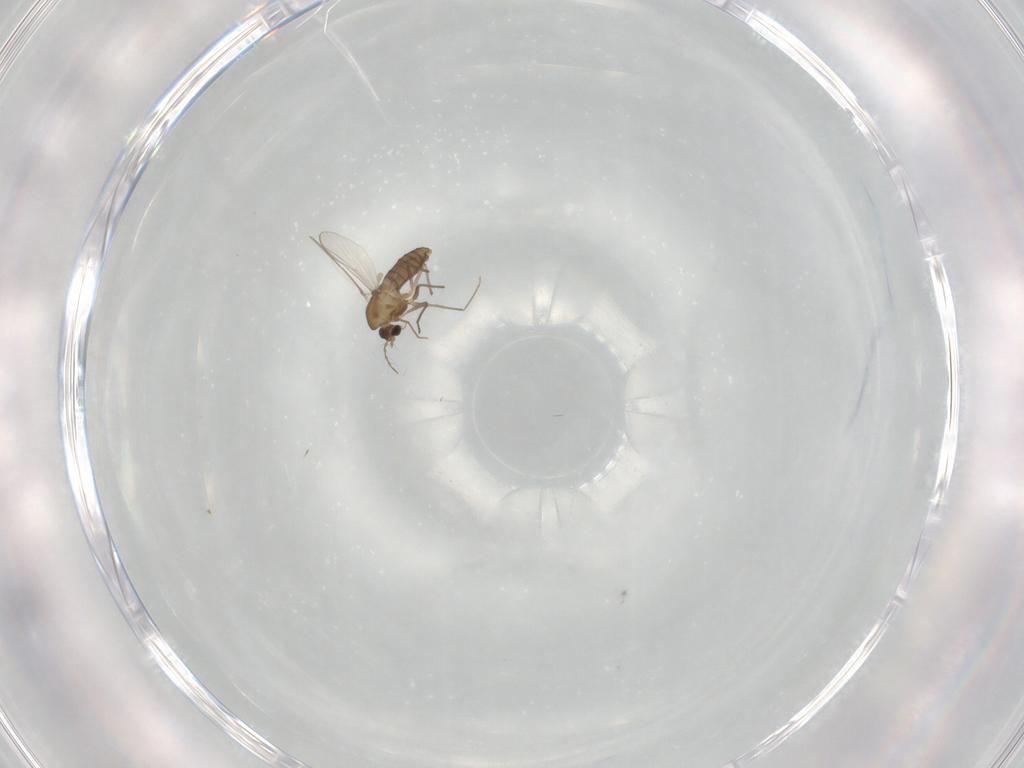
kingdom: Animalia
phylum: Arthropoda
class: Insecta
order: Diptera
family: Chironomidae
